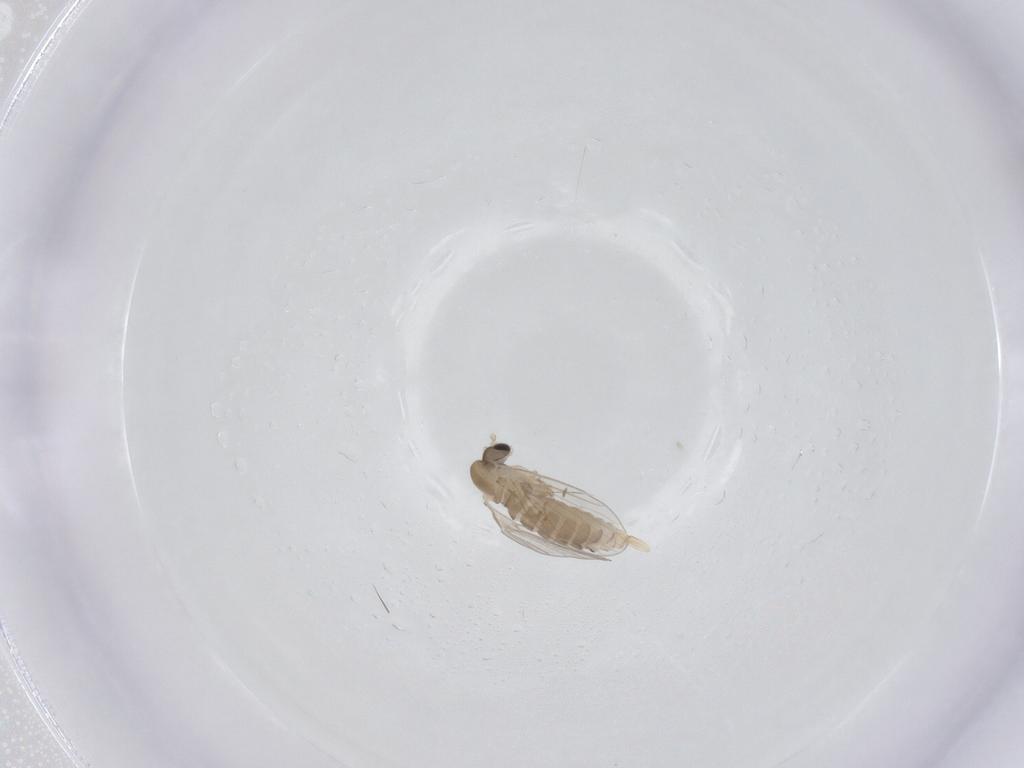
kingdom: Animalia
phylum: Arthropoda
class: Insecta
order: Diptera
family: Psychodidae
